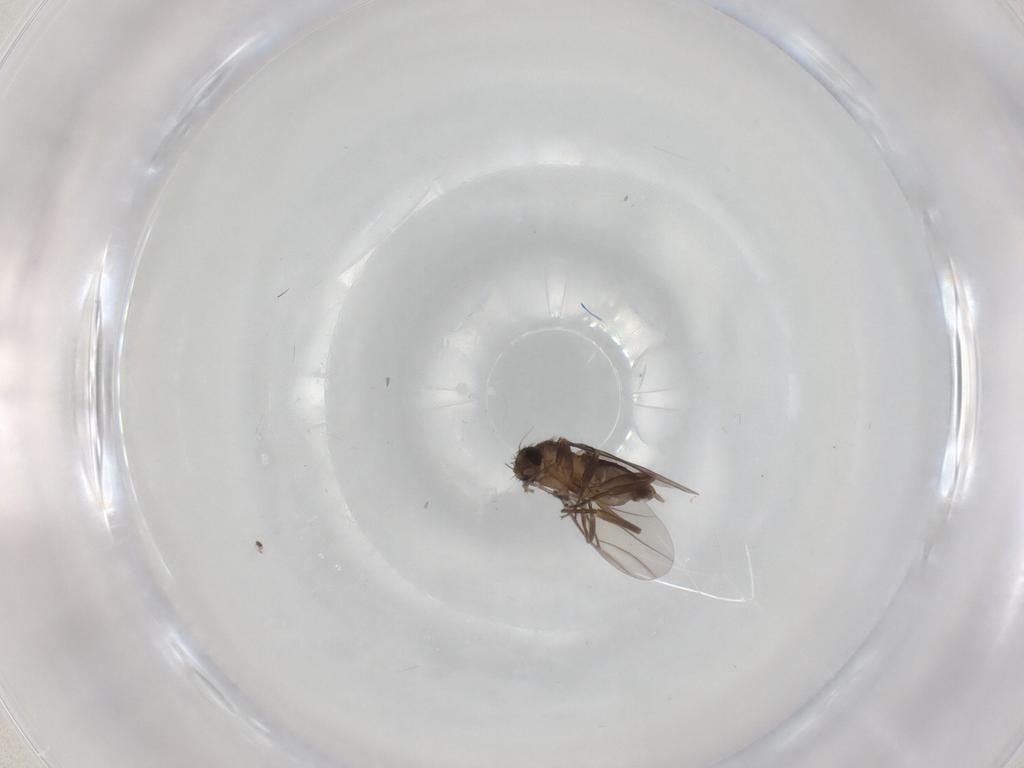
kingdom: Animalia
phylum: Arthropoda
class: Insecta
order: Diptera
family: Phoridae
